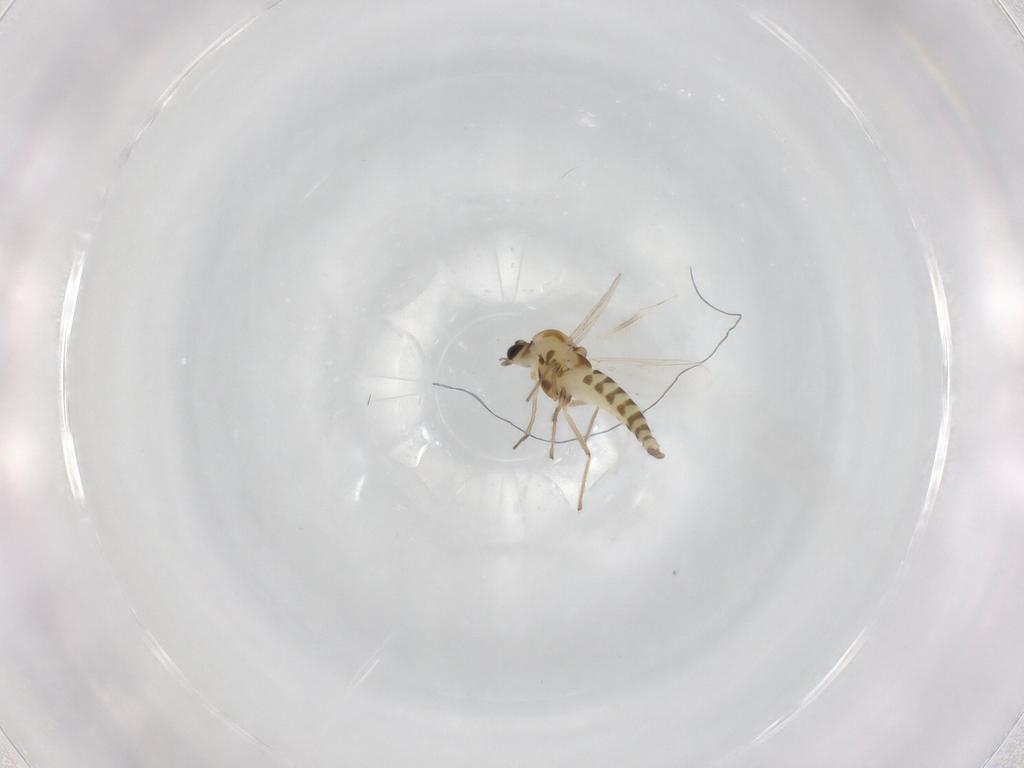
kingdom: Animalia
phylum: Arthropoda
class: Insecta
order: Diptera
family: Chironomidae
